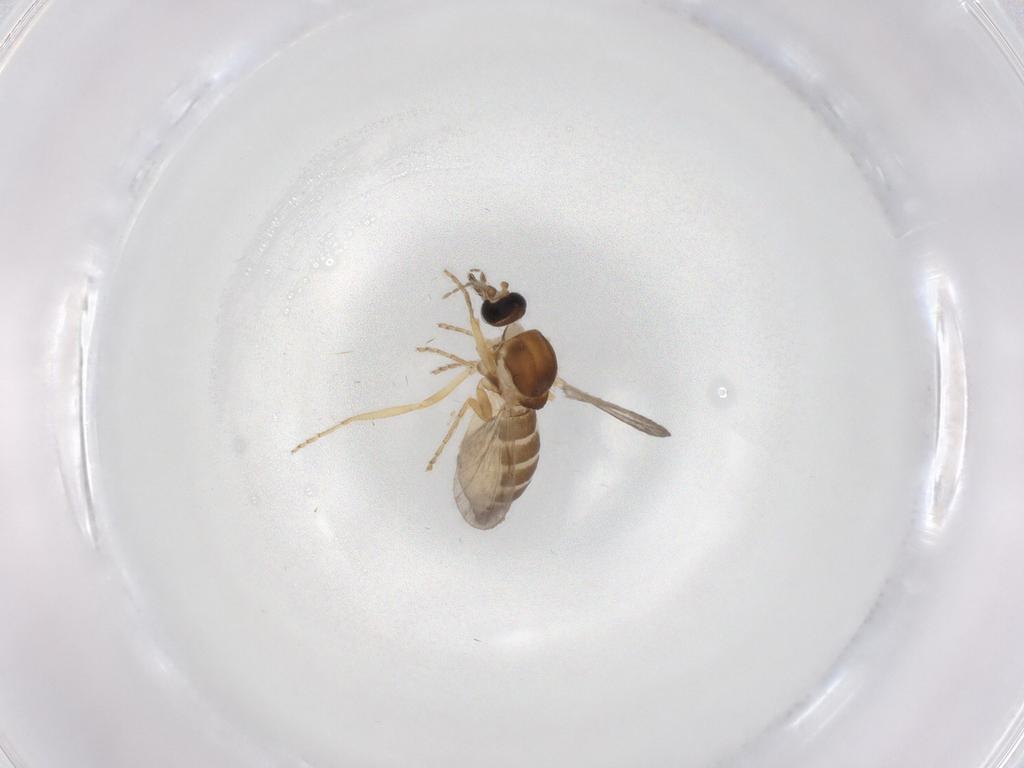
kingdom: Animalia
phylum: Arthropoda
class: Insecta
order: Diptera
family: Ceratopogonidae
